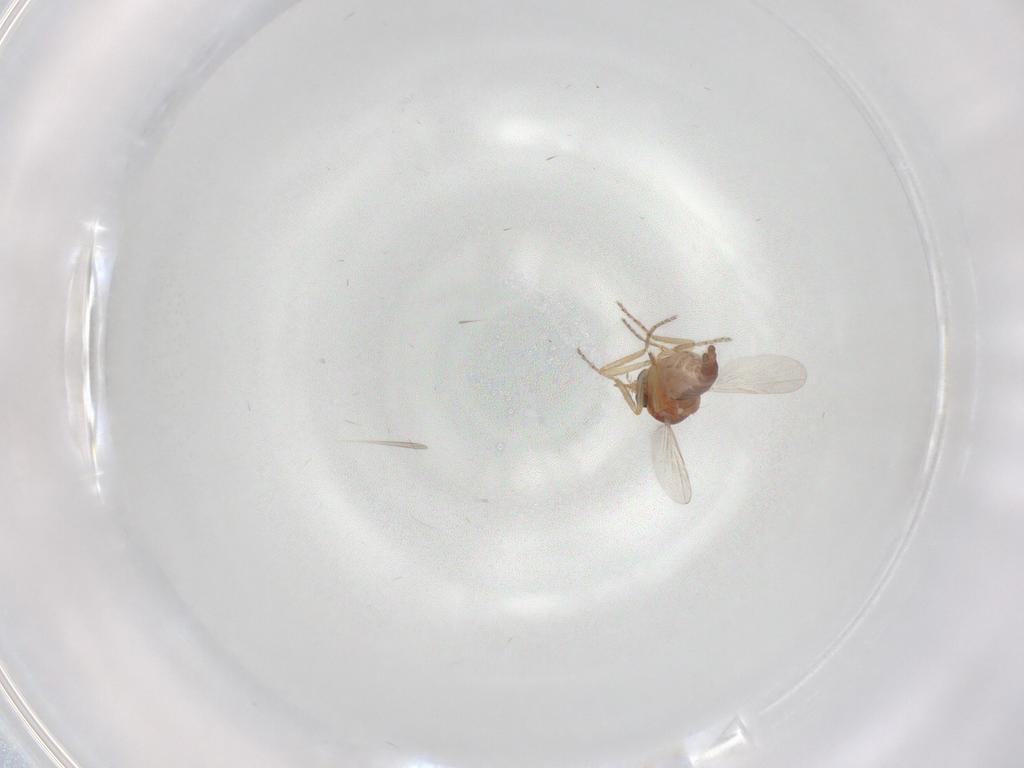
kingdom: Animalia
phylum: Arthropoda
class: Insecta
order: Diptera
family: Ceratopogonidae
